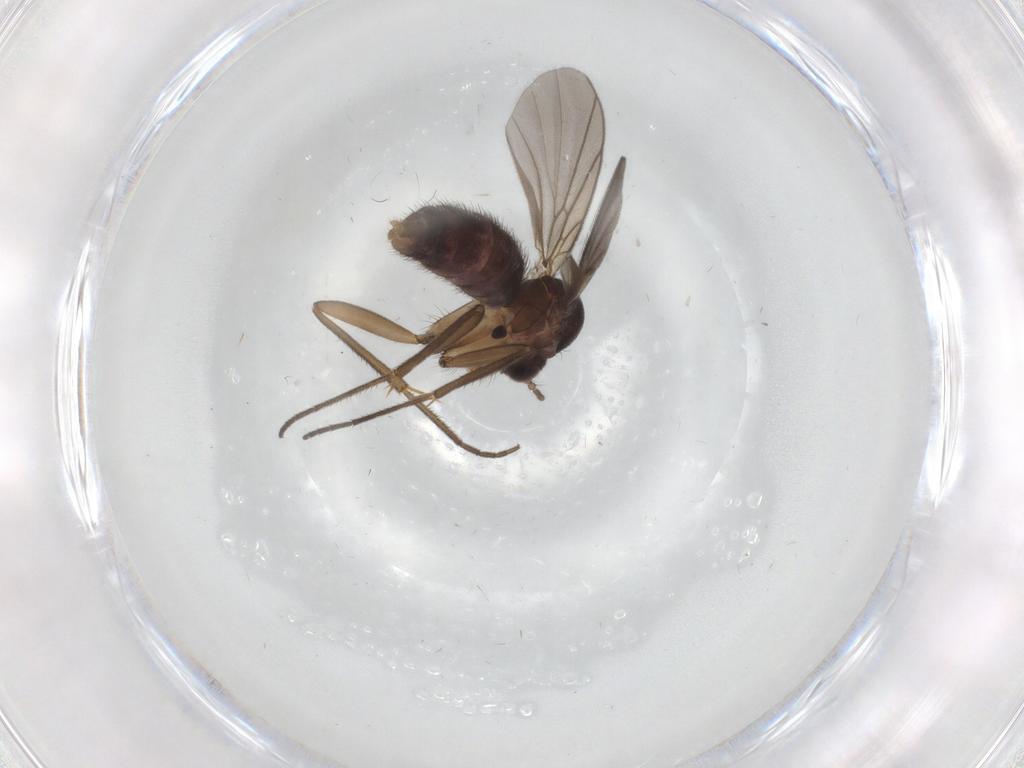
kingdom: Animalia
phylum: Arthropoda
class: Insecta
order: Diptera
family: Mycetophilidae
